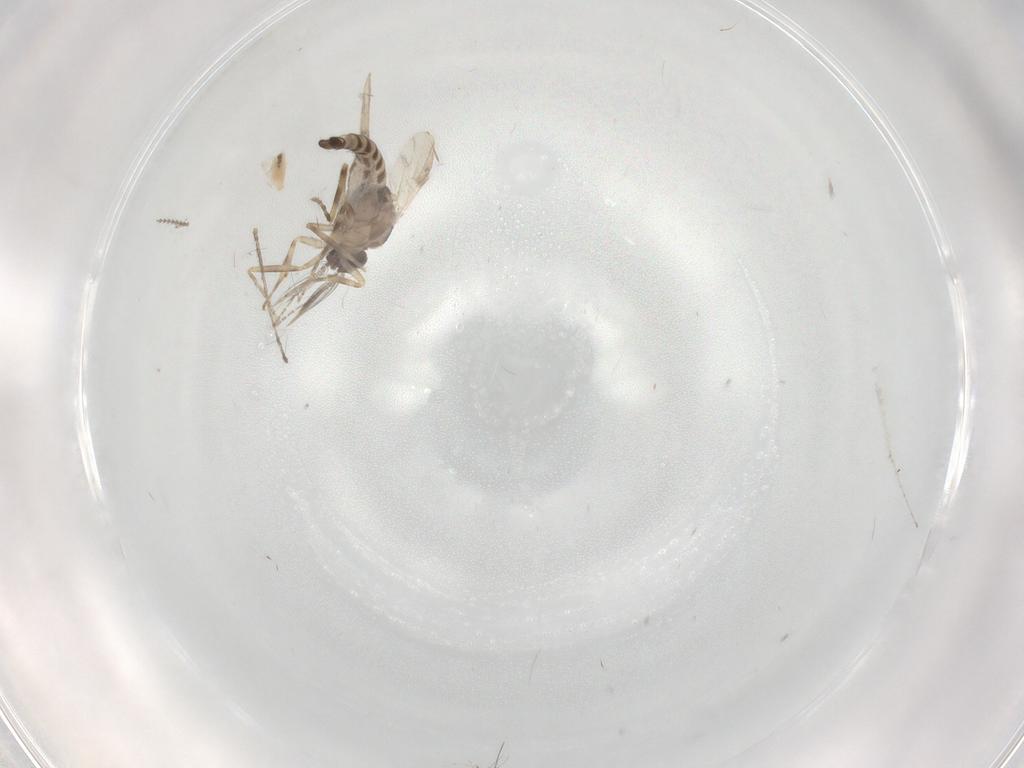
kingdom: Animalia
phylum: Arthropoda
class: Insecta
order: Diptera
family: Ceratopogonidae
